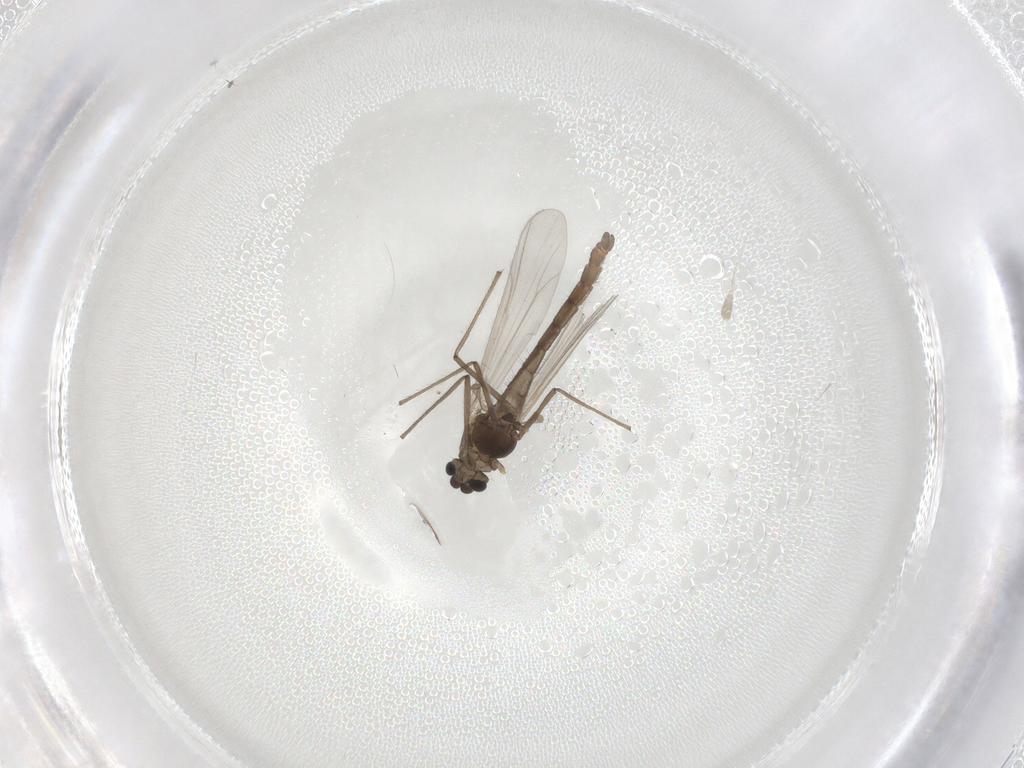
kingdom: Animalia
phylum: Arthropoda
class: Insecta
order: Diptera
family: Chironomidae
